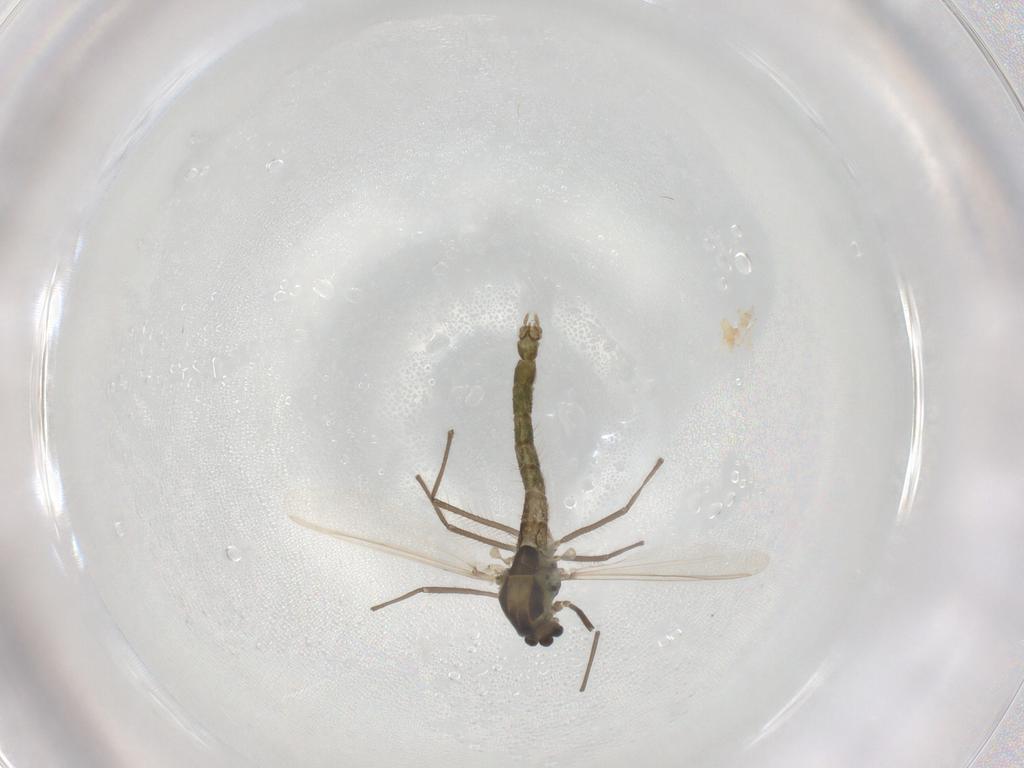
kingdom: Animalia
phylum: Arthropoda
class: Insecta
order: Diptera
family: Chironomidae
